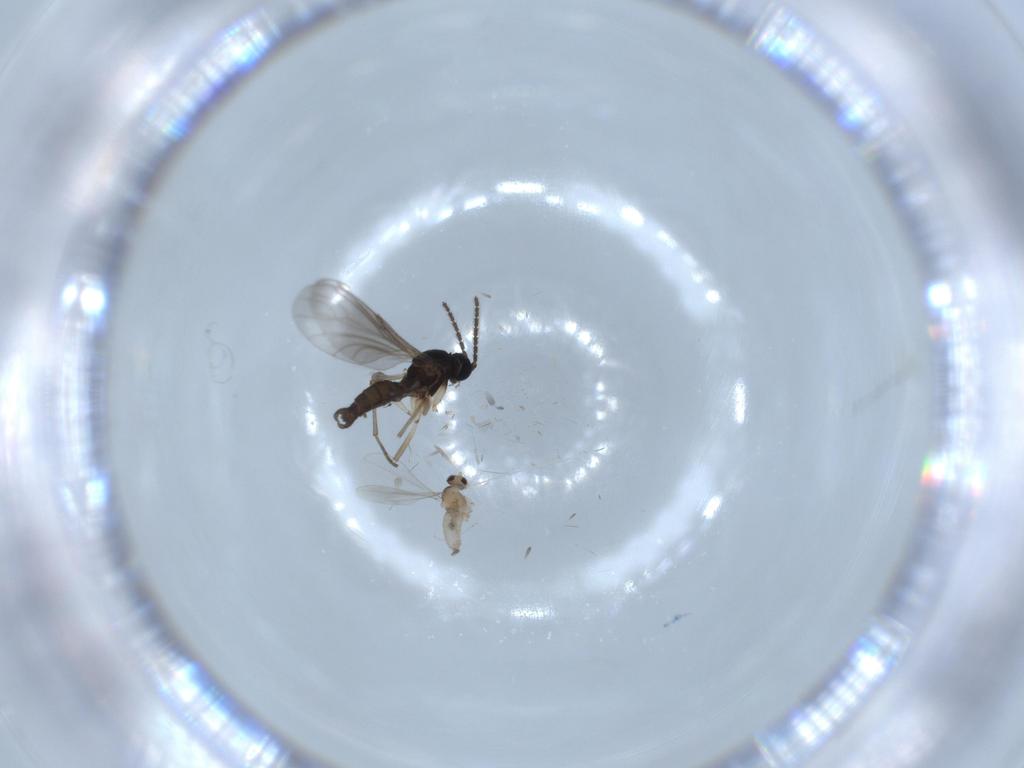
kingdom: Animalia
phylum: Arthropoda
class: Insecta
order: Diptera
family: Sciaridae
